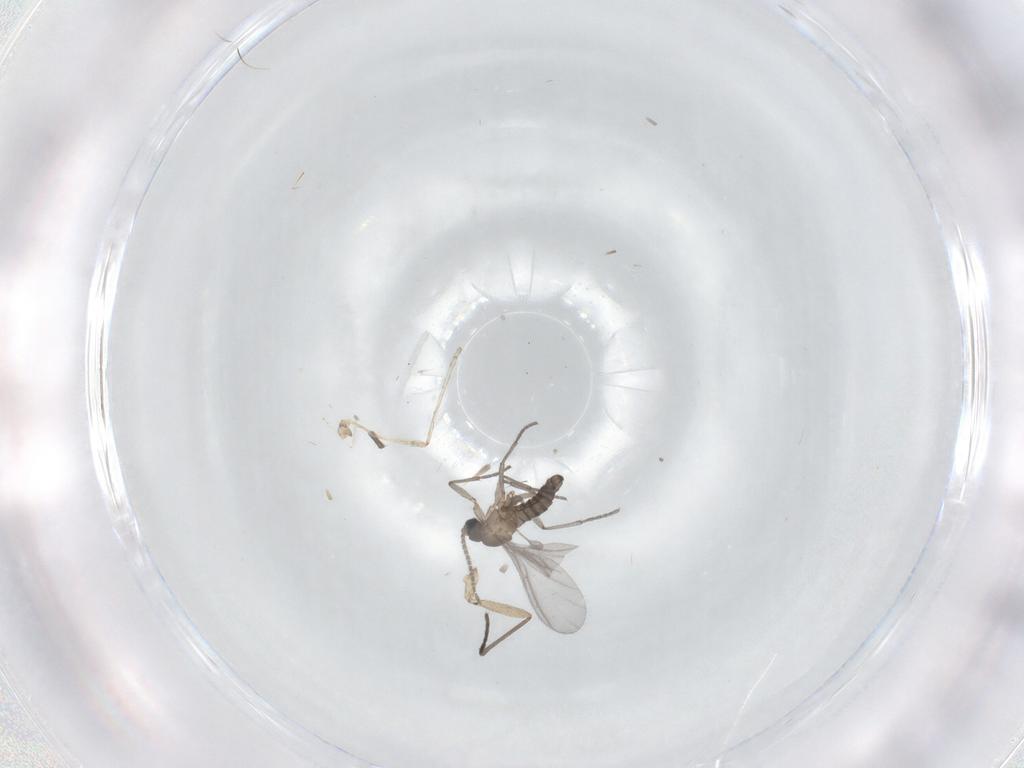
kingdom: Animalia
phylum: Arthropoda
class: Insecta
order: Diptera
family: Sciaridae
